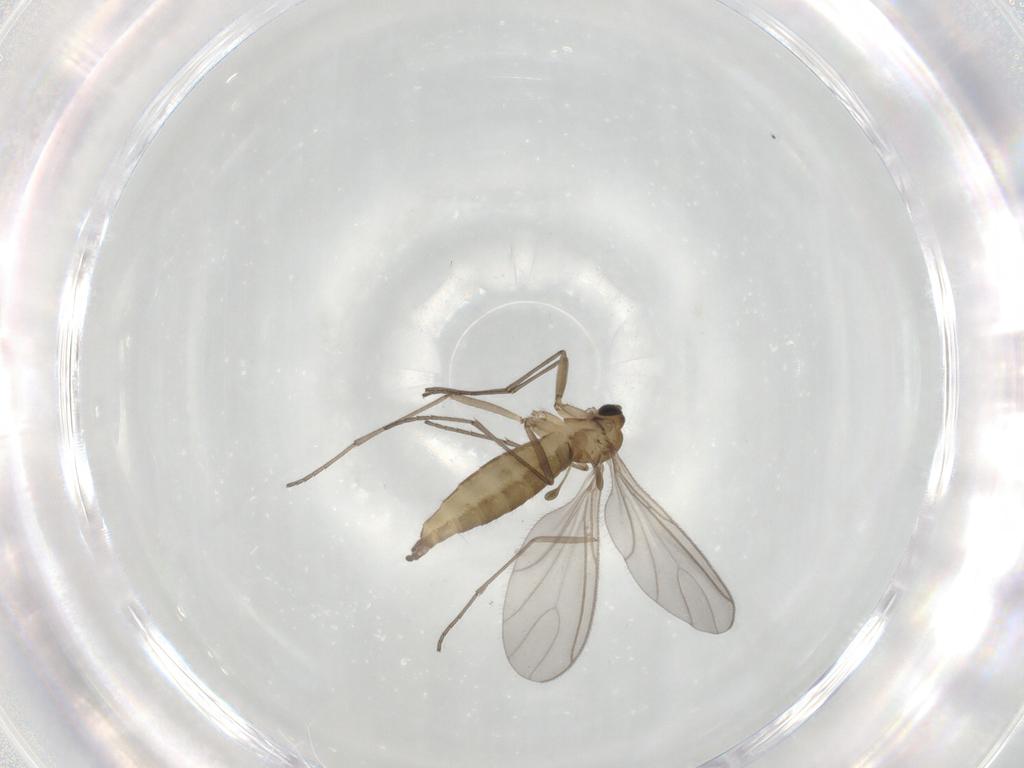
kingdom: Animalia
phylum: Arthropoda
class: Insecta
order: Diptera
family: Sciaridae
